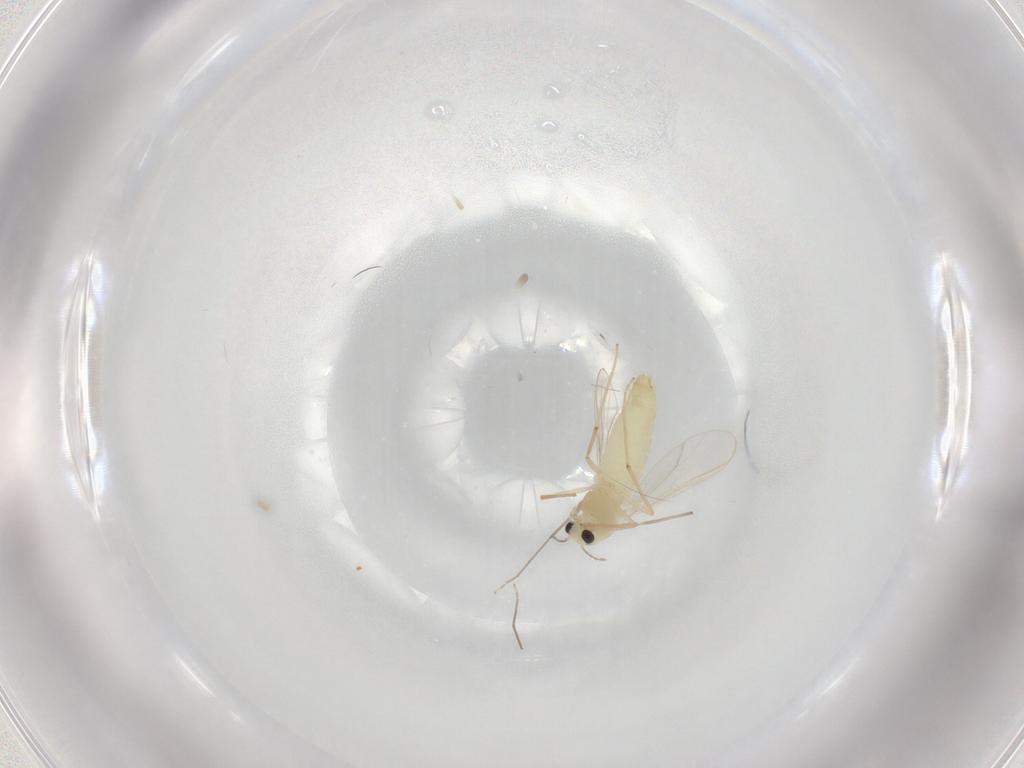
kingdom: Animalia
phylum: Arthropoda
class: Insecta
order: Diptera
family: Chironomidae
